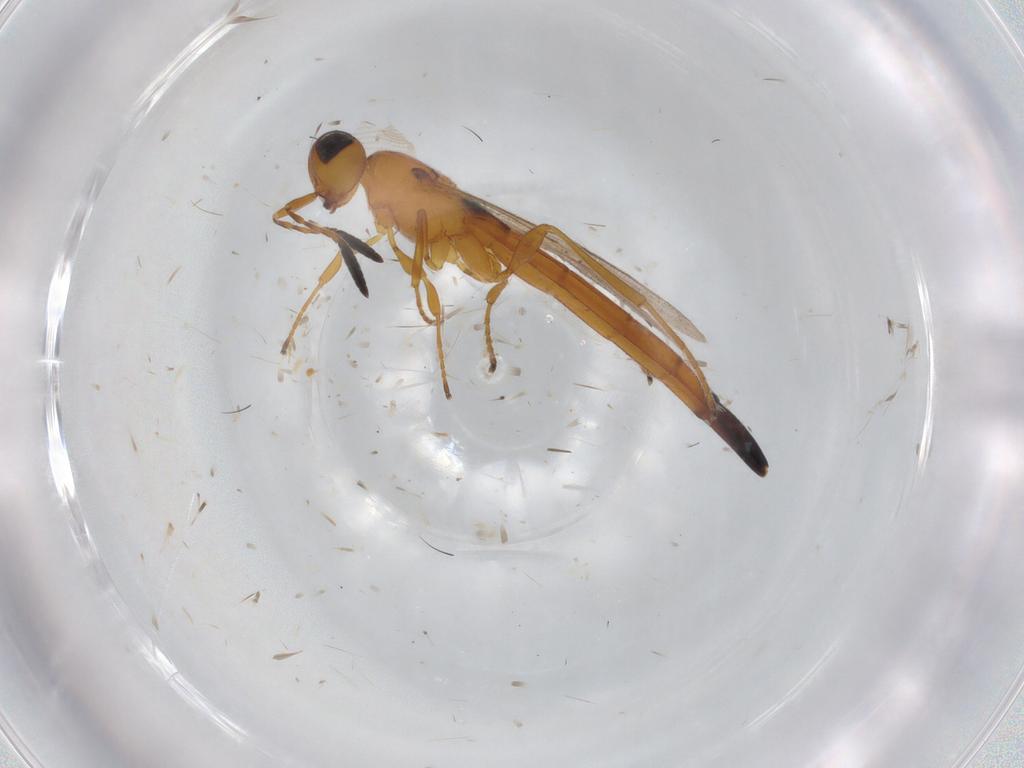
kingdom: Animalia
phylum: Arthropoda
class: Insecta
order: Hymenoptera
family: Scelionidae
